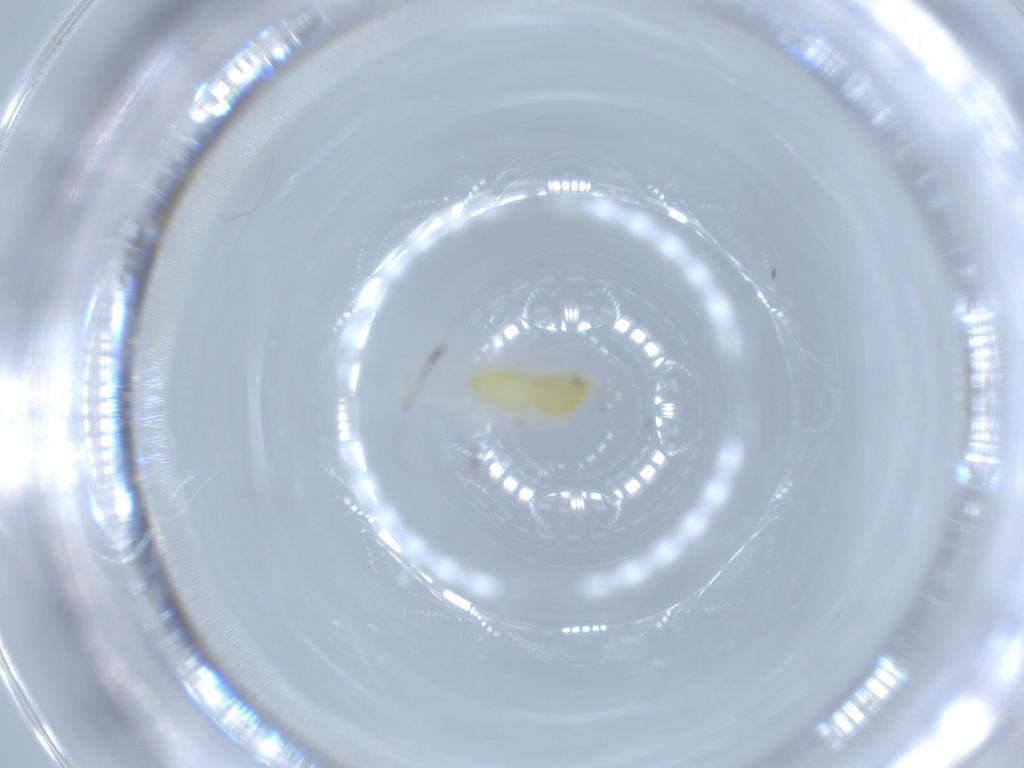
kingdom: Animalia
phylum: Arthropoda
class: Insecta
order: Hemiptera
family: Aleyrodidae
